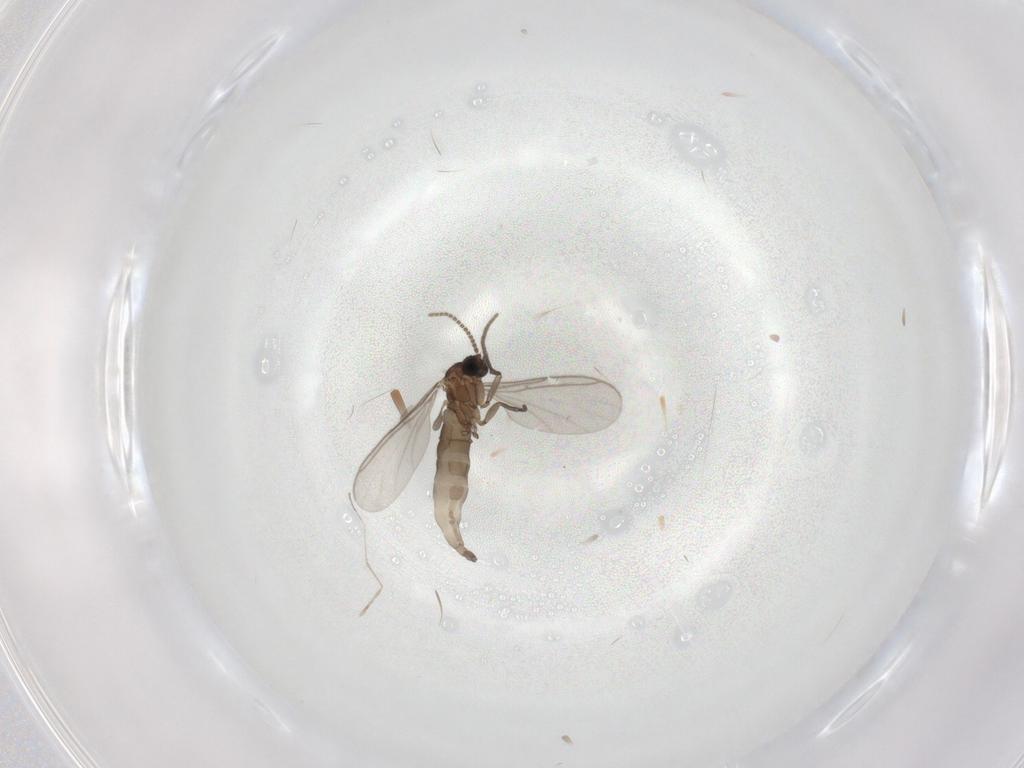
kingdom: Animalia
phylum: Arthropoda
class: Insecta
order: Diptera
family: Sciaridae
